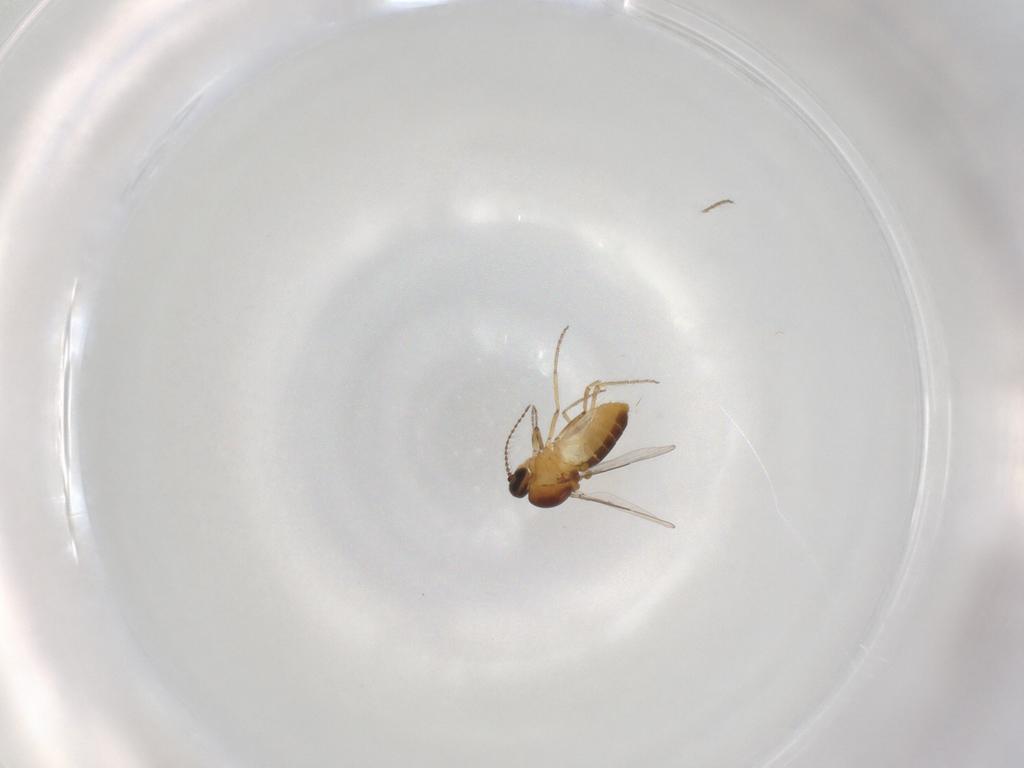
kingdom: Animalia
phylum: Arthropoda
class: Insecta
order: Diptera
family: Ceratopogonidae
